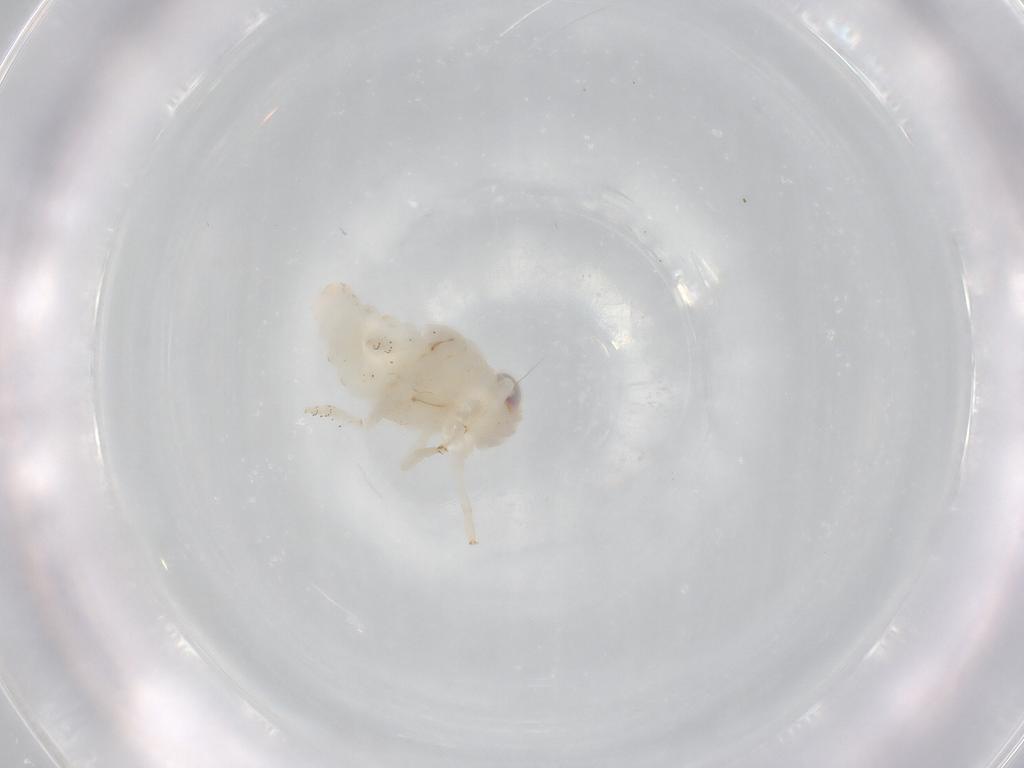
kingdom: Animalia
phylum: Arthropoda
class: Insecta
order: Hemiptera
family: Nogodinidae
